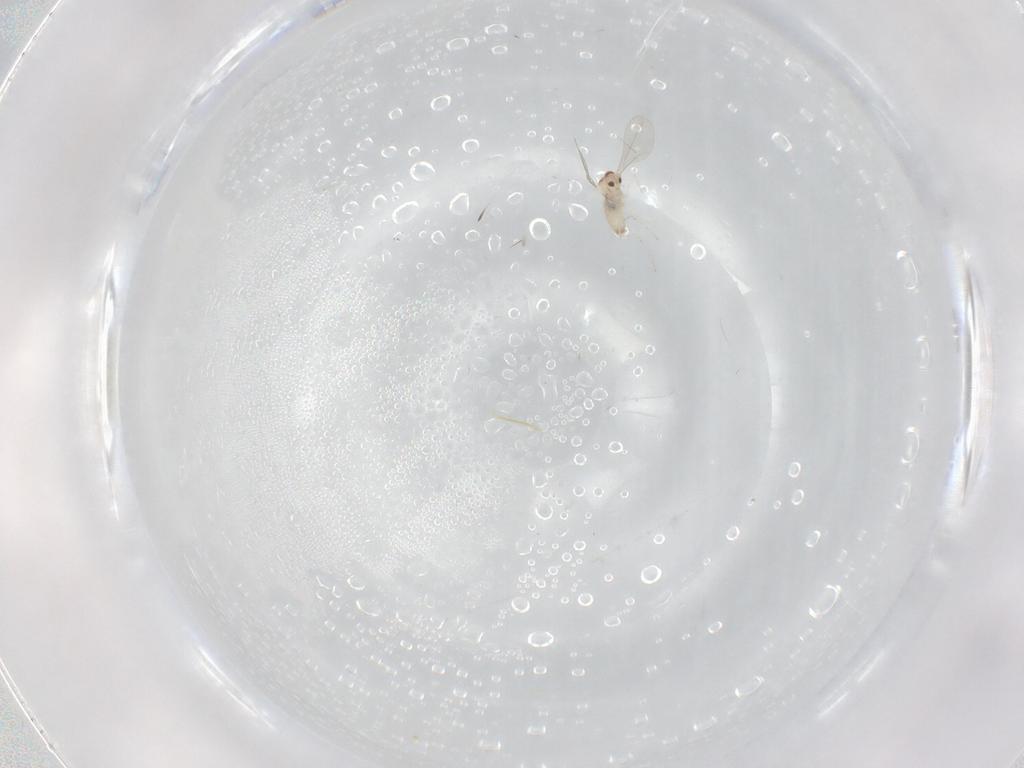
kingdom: Animalia
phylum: Arthropoda
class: Insecta
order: Diptera
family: Cecidomyiidae
